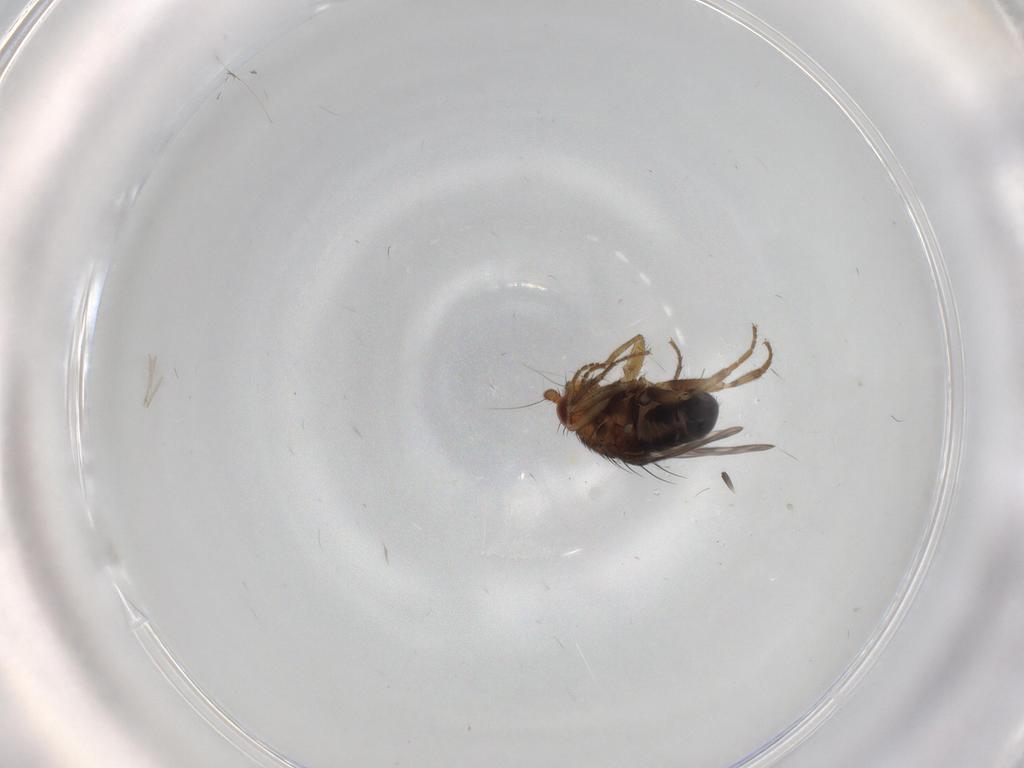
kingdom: Animalia
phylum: Arthropoda
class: Insecta
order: Diptera
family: Sphaeroceridae
